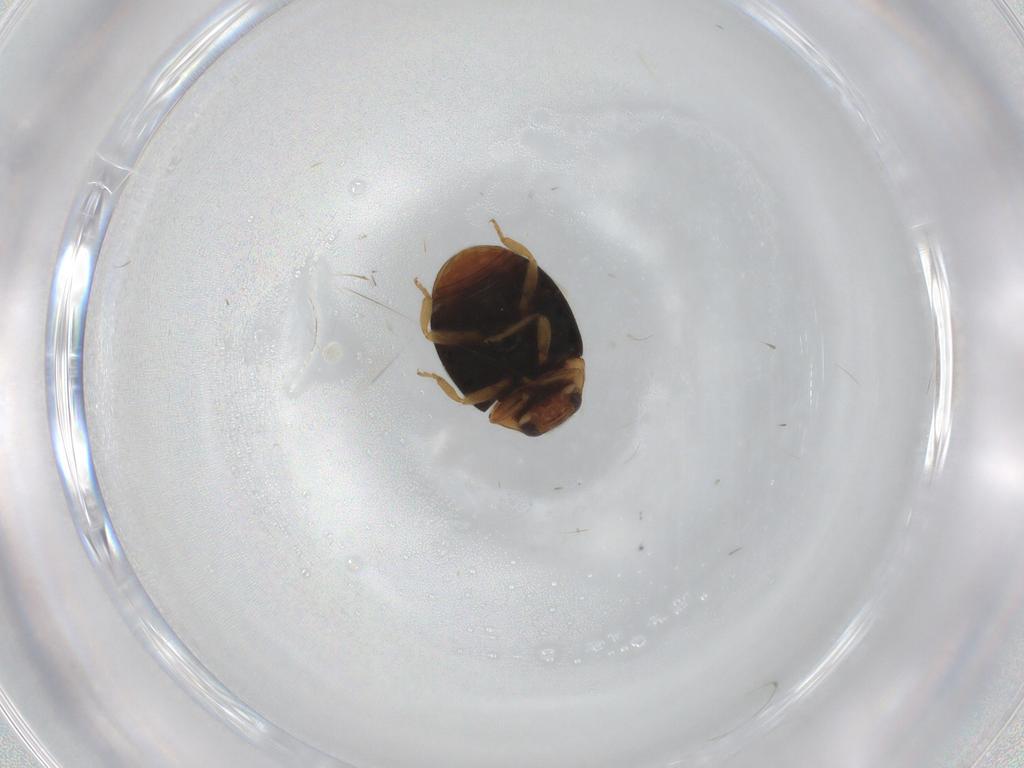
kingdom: Animalia
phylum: Arthropoda
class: Insecta
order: Coleoptera
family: Coccinellidae
